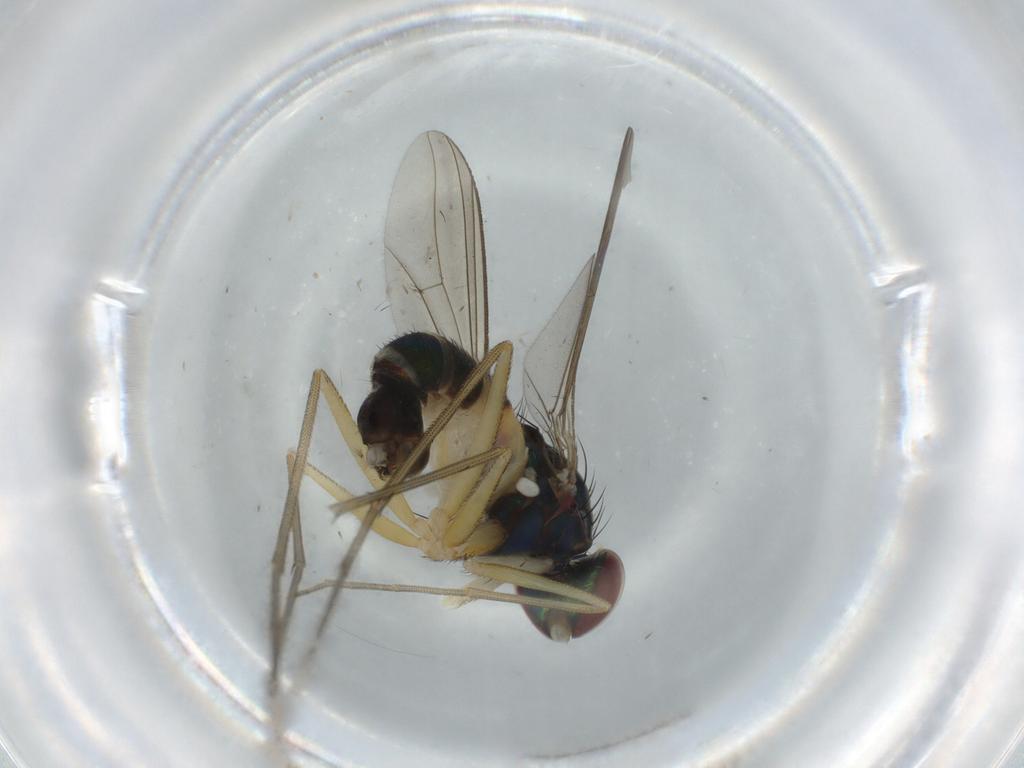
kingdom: Animalia
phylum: Arthropoda
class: Insecta
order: Diptera
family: Dolichopodidae
